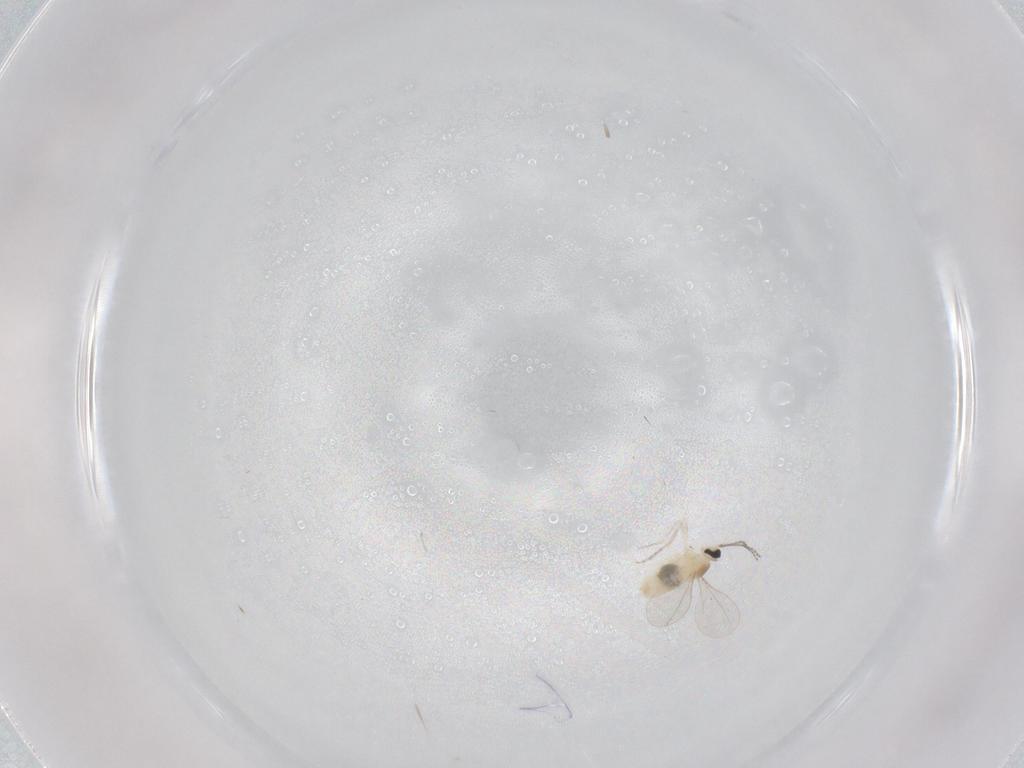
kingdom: Animalia
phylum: Arthropoda
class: Insecta
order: Diptera
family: Cecidomyiidae
